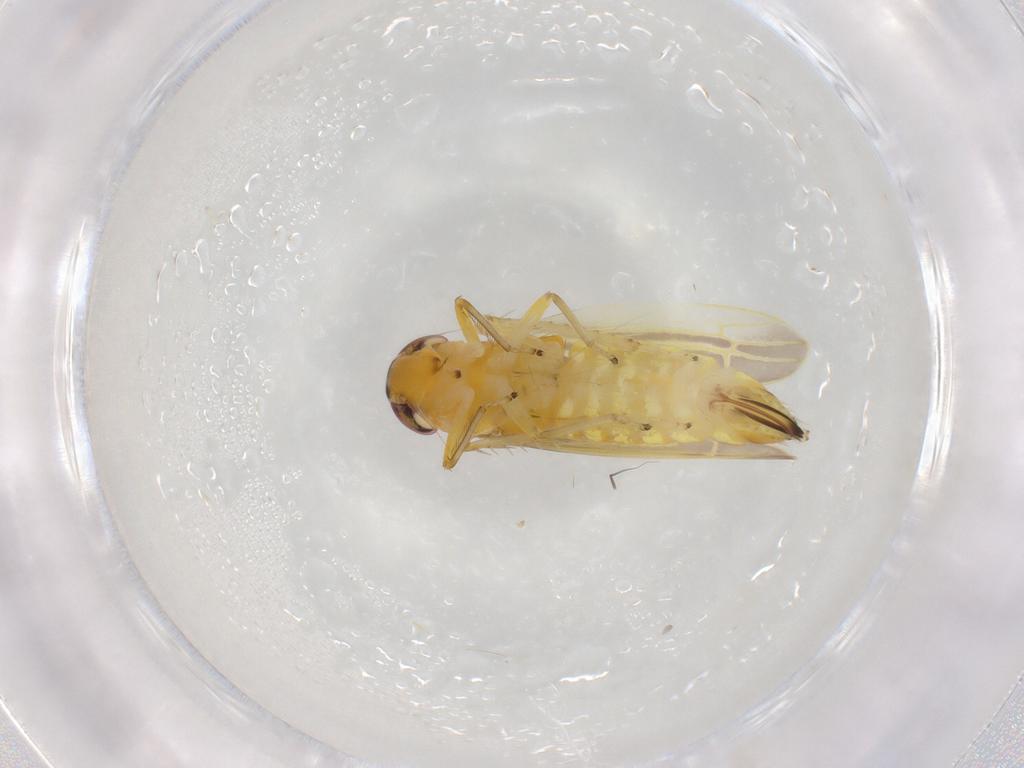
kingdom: Animalia
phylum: Arthropoda
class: Insecta
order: Hemiptera
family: Cicadellidae
